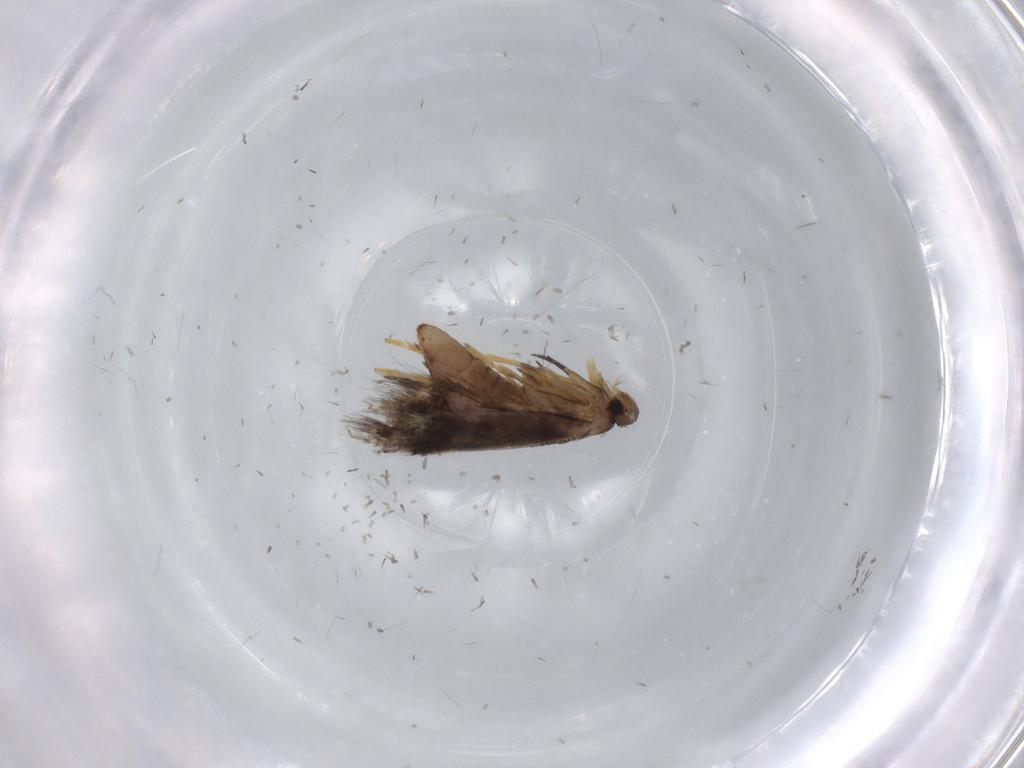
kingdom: Animalia
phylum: Arthropoda
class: Insecta
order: Lepidoptera
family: Heliozelidae
